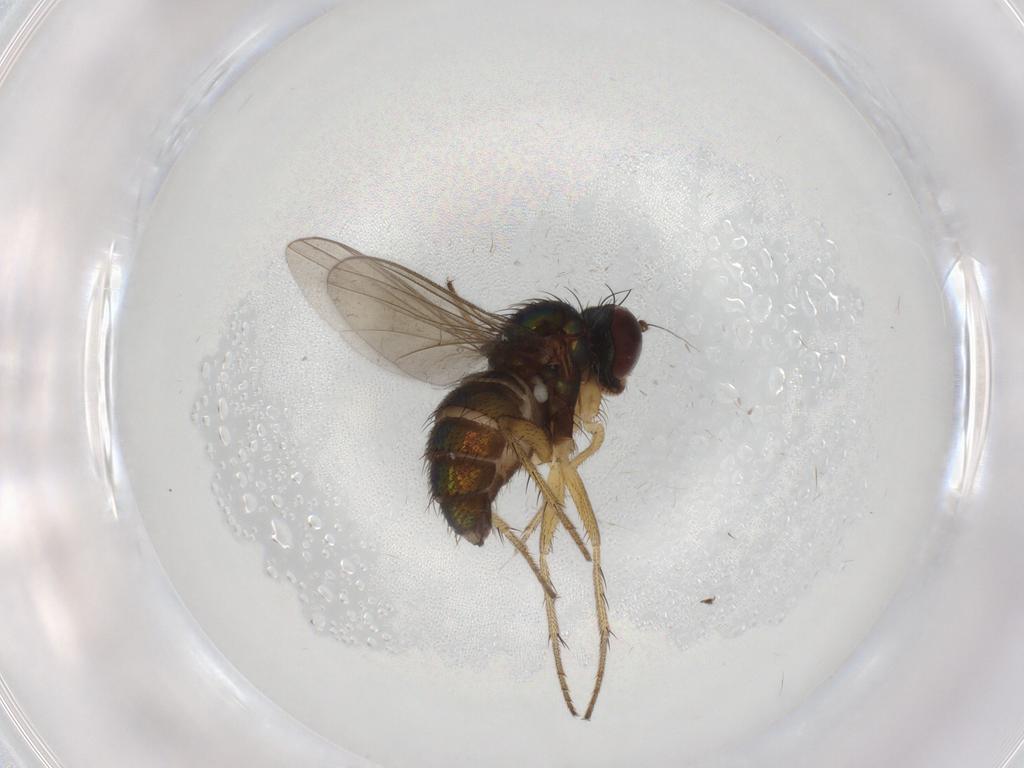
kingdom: Animalia
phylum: Arthropoda
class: Insecta
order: Diptera
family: Dolichopodidae
